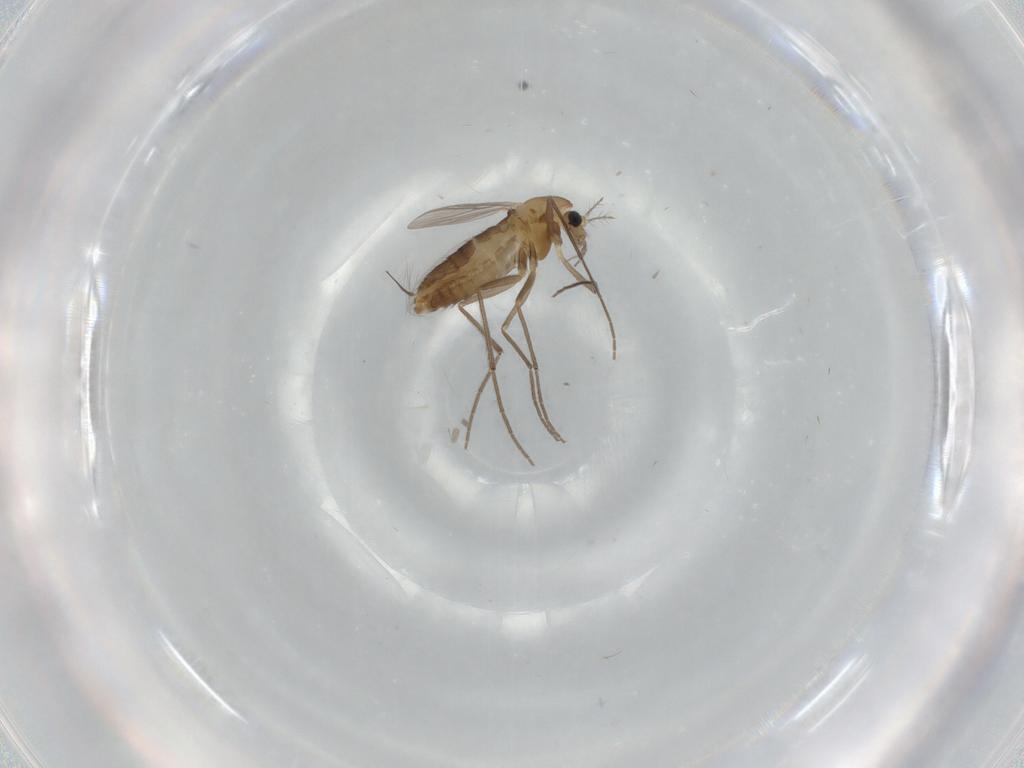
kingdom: Animalia
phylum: Arthropoda
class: Insecta
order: Diptera
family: Chironomidae
